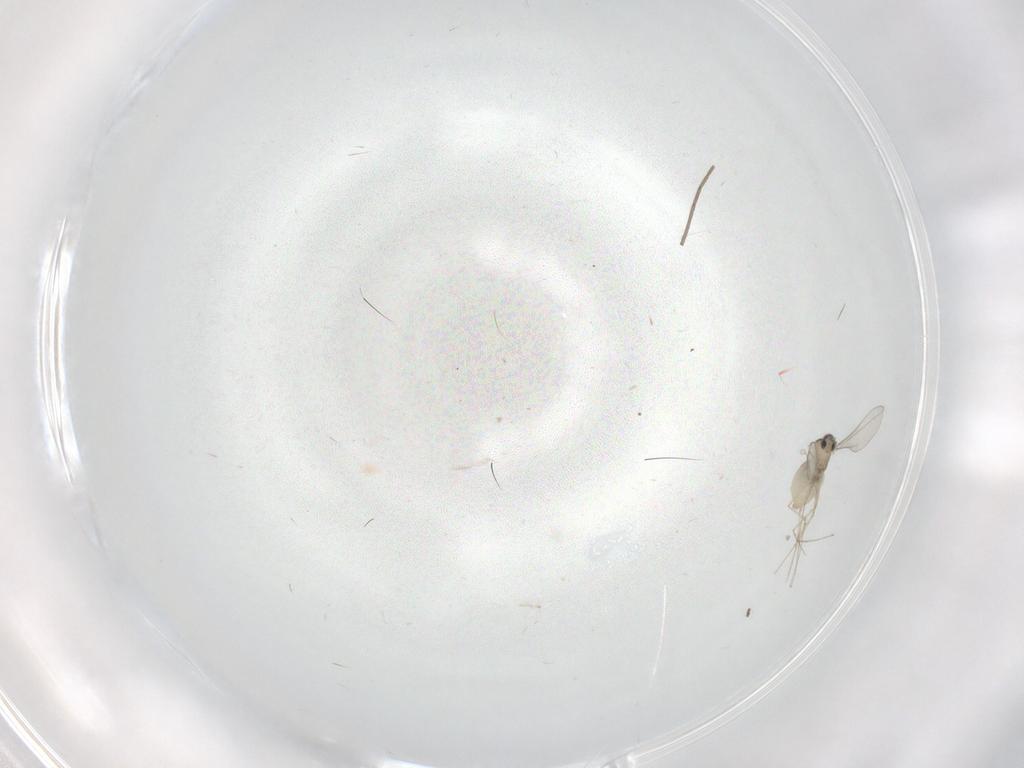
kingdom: Animalia
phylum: Arthropoda
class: Insecta
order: Diptera
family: Cecidomyiidae
